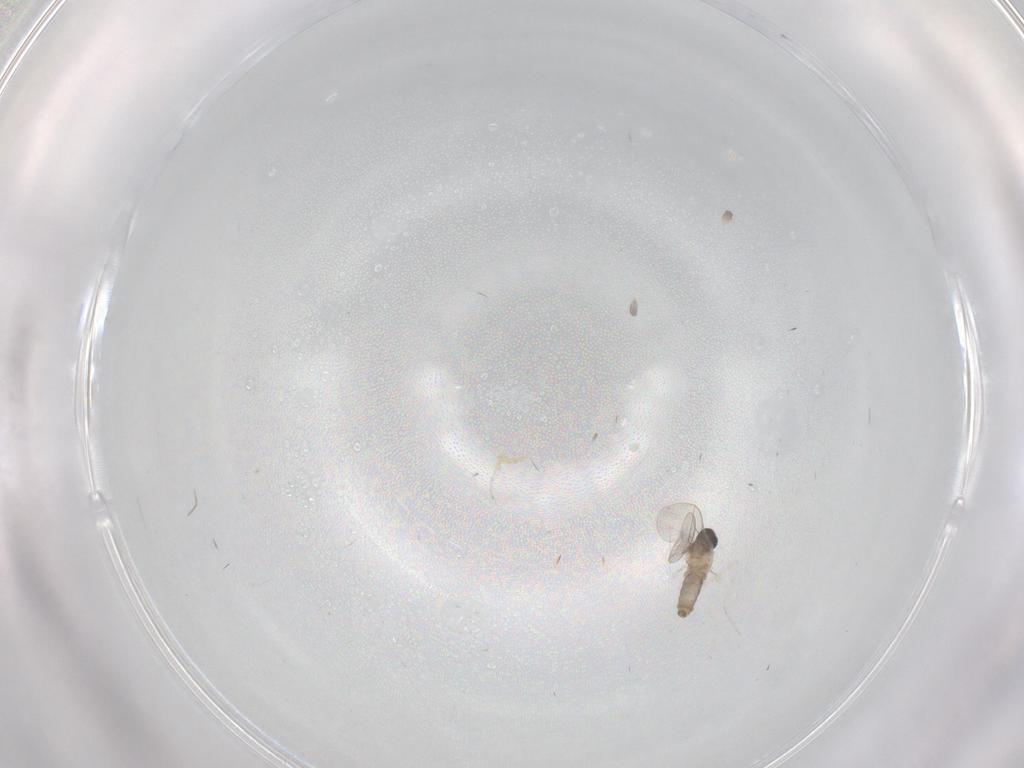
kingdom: Animalia
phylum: Arthropoda
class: Insecta
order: Diptera
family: Cecidomyiidae
